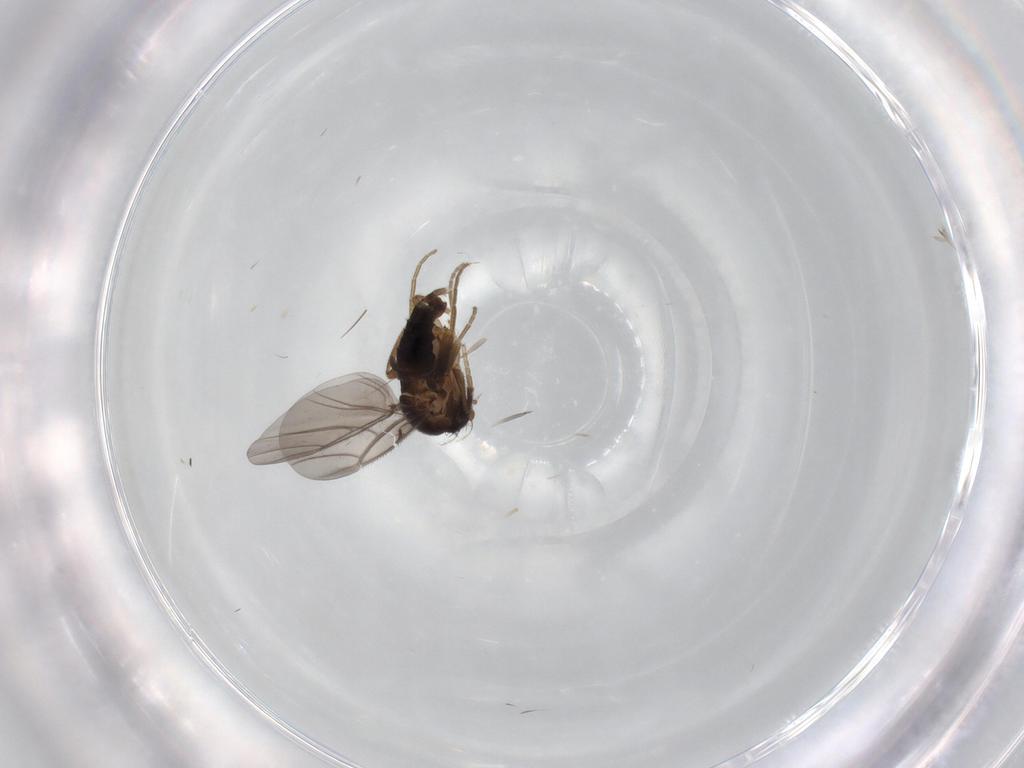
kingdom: Animalia
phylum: Arthropoda
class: Insecta
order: Diptera
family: Phoridae
